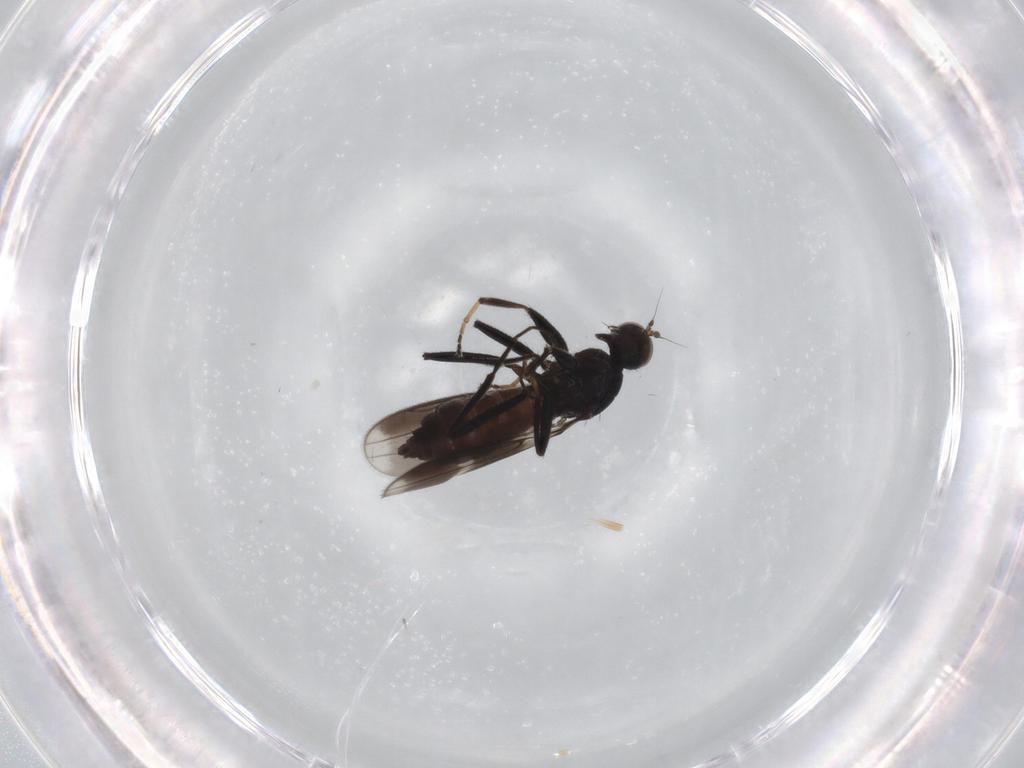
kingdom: Animalia
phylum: Arthropoda
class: Insecta
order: Diptera
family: Hybotidae
